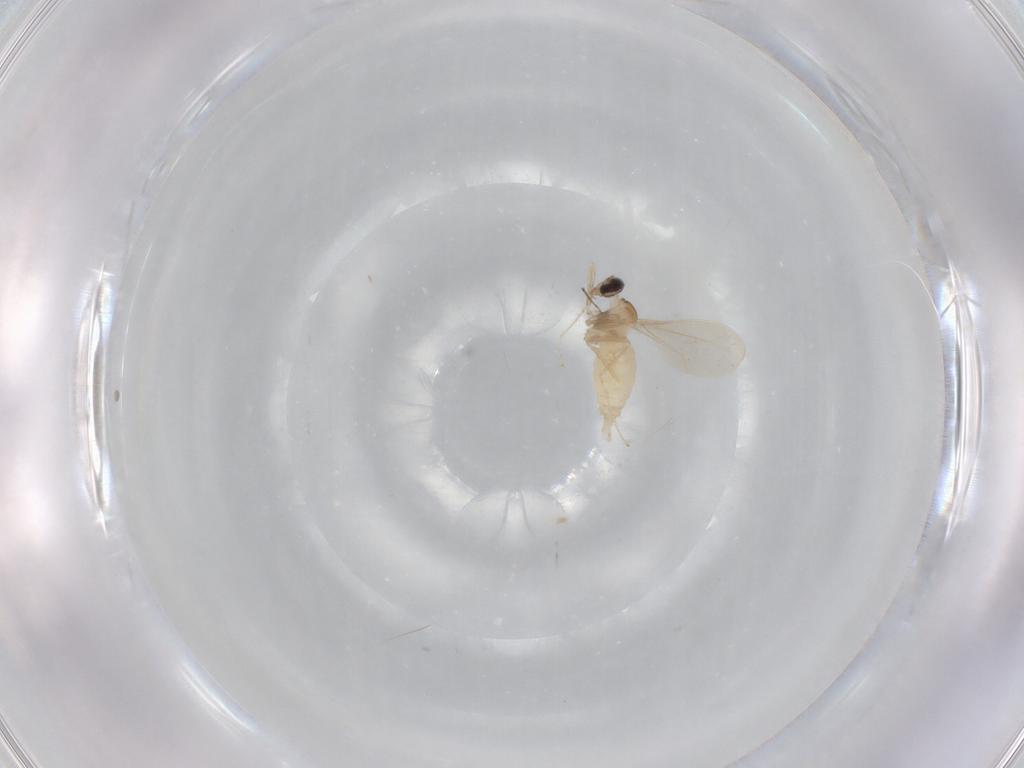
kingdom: Animalia
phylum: Arthropoda
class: Insecta
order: Diptera
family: Cecidomyiidae
